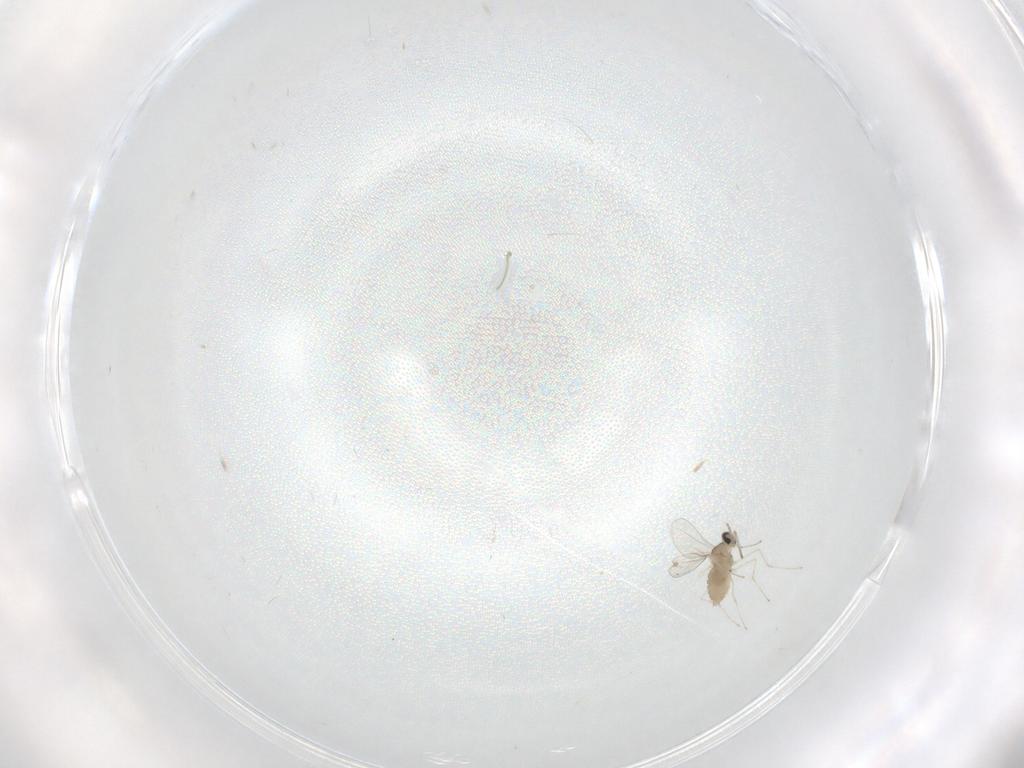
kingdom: Animalia
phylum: Arthropoda
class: Insecta
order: Diptera
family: Cecidomyiidae
